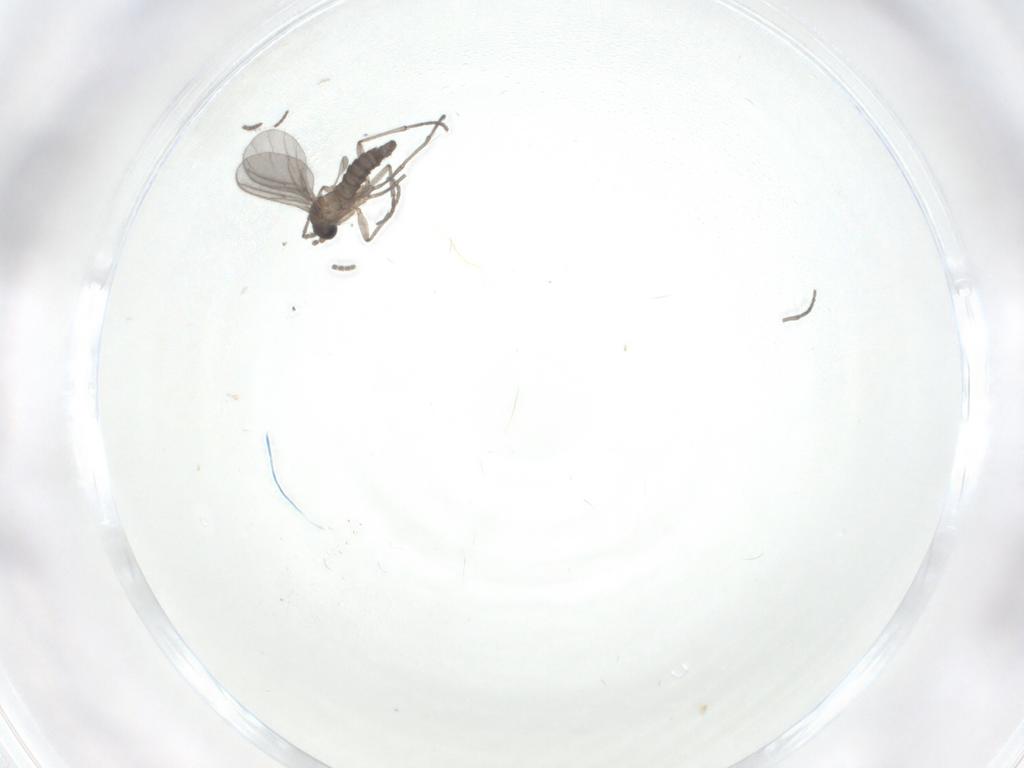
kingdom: Animalia
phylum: Arthropoda
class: Insecta
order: Diptera
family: Sciaridae
